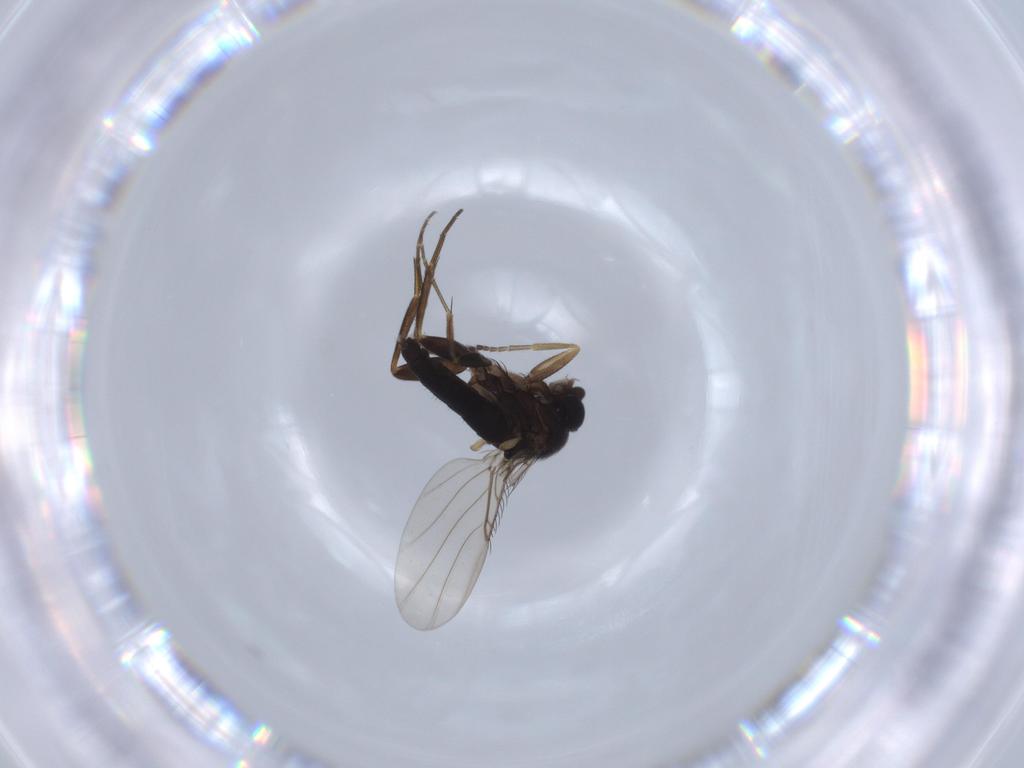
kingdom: Animalia
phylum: Arthropoda
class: Insecta
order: Diptera
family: Phoridae
